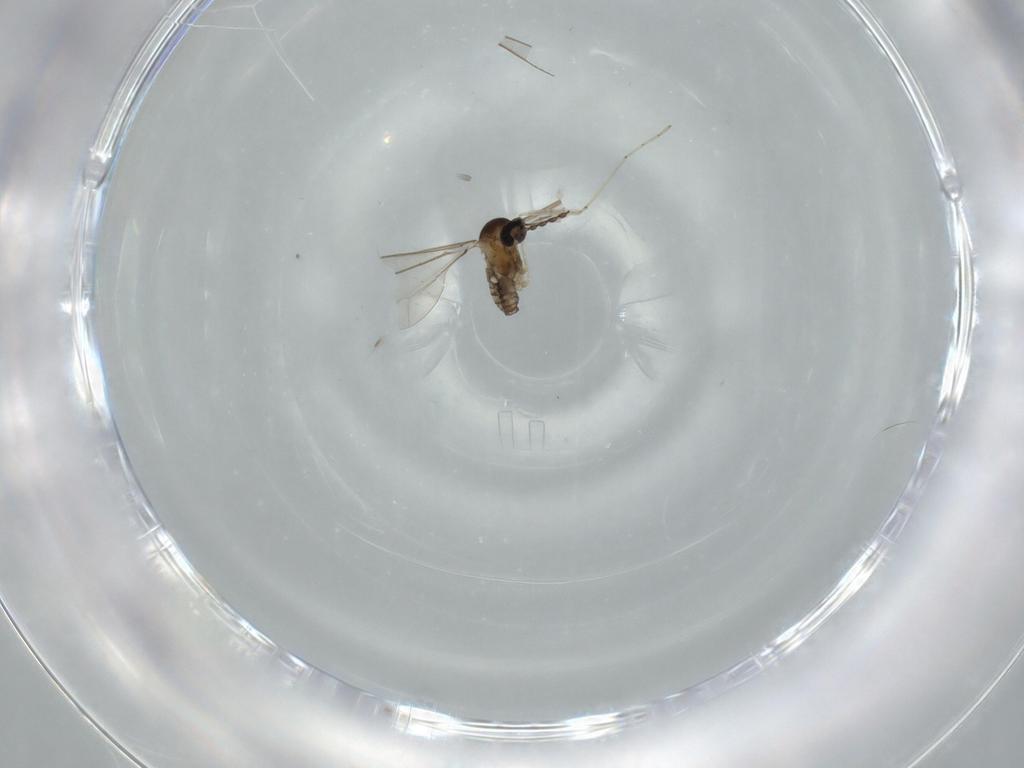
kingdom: Animalia
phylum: Arthropoda
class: Insecta
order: Diptera
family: Cecidomyiidae
